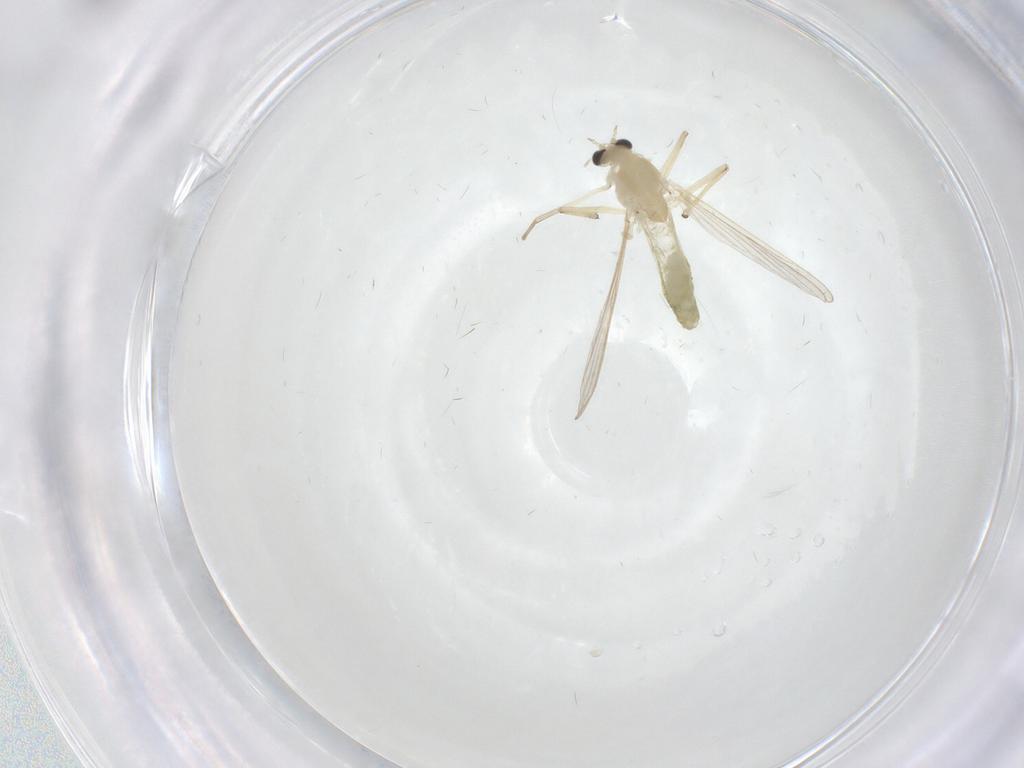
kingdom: Animalia
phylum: Arthropoda
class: Insecta
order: Diptera
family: Chironomidae
